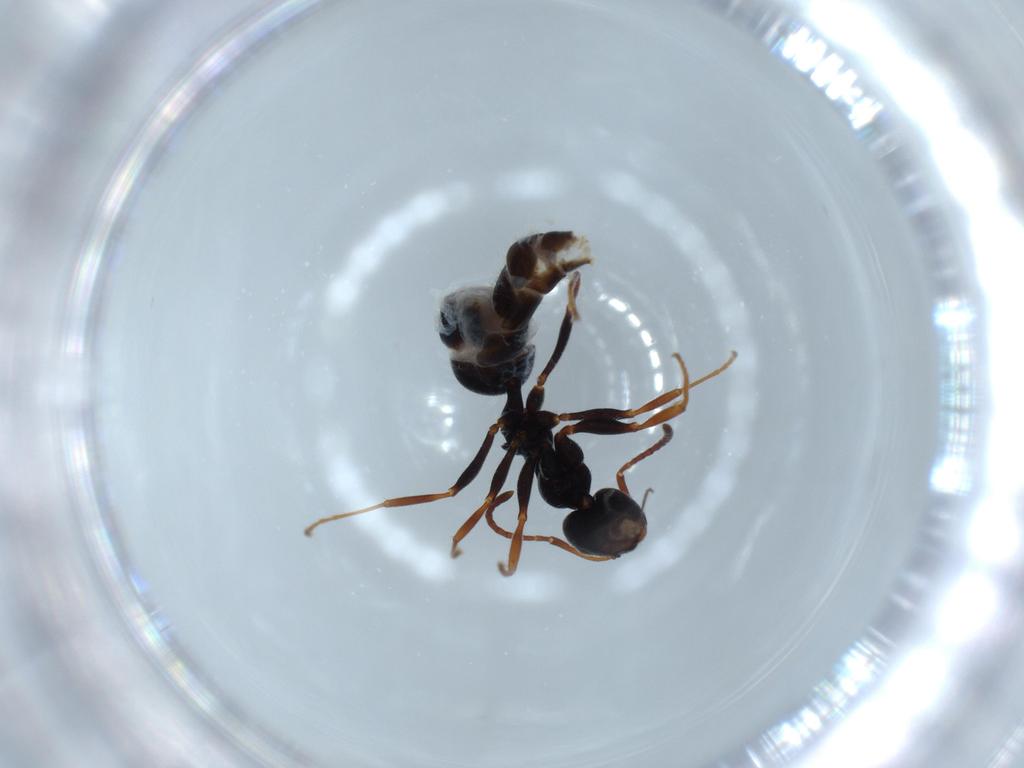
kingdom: Animalia
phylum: Arthropoda
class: Insecta
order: Hymenoptera
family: Formicidae
